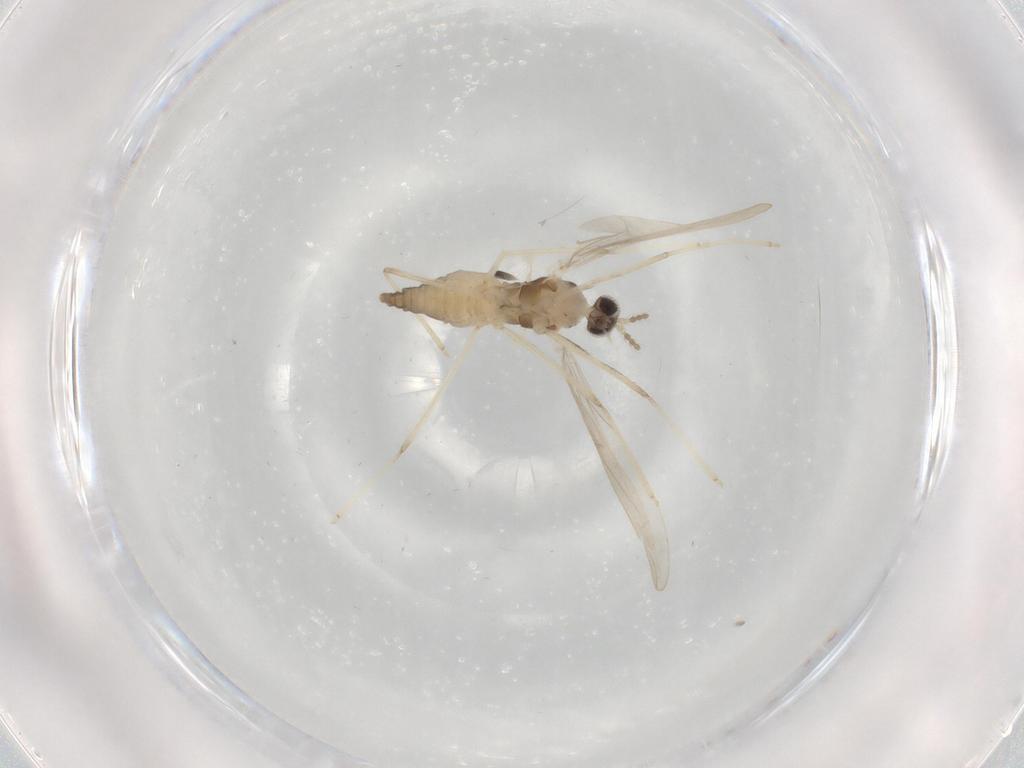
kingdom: Animalia
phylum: Arthropoda
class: Insecta
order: Diptera
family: Cecidomyiidae
